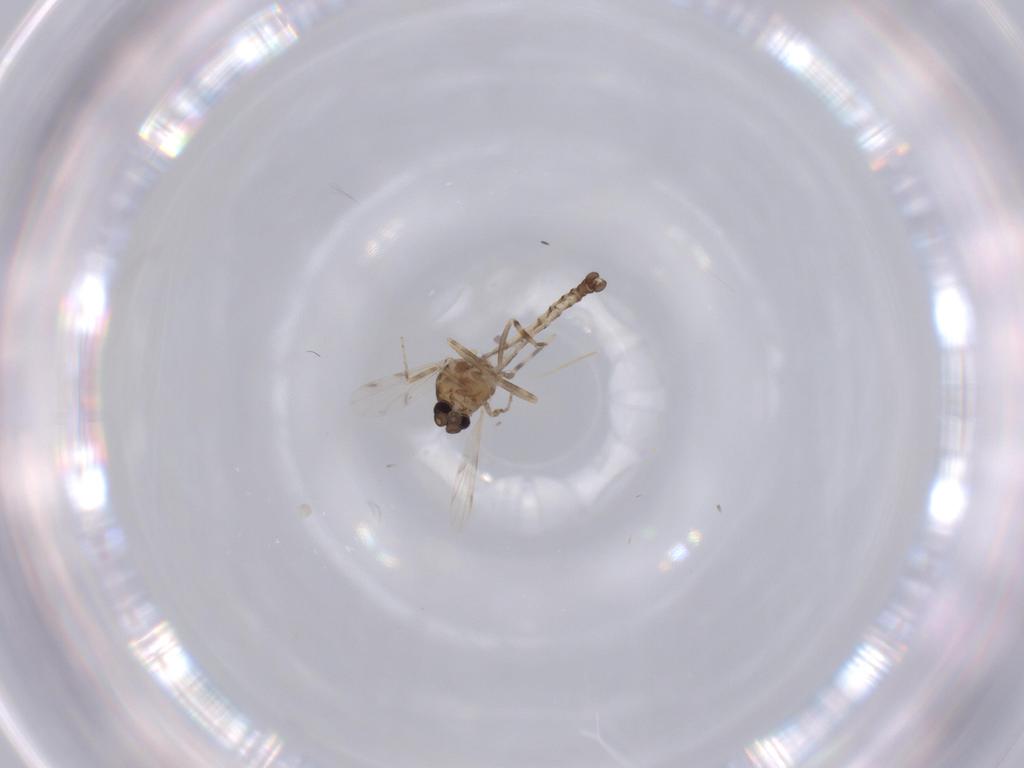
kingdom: Animalia
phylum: Arthropoda
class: Insecta
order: Diptera
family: Ceratopogonidae
